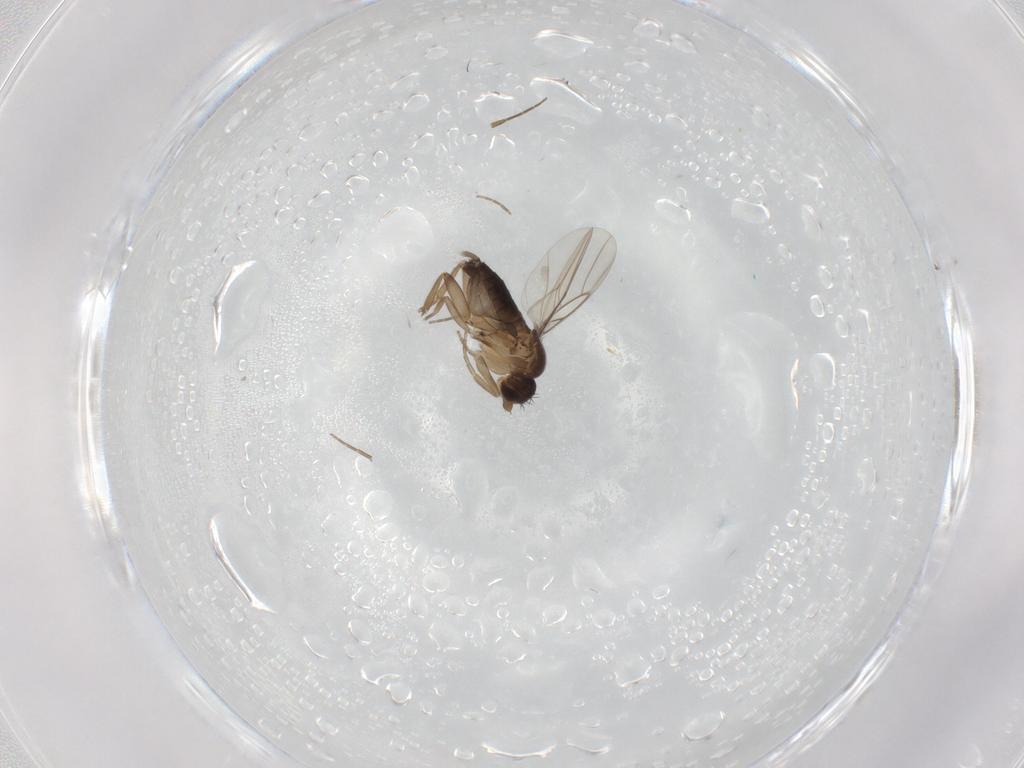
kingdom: Animalia
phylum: Arthropoda
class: Insecta
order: Diptera
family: Phoridae
